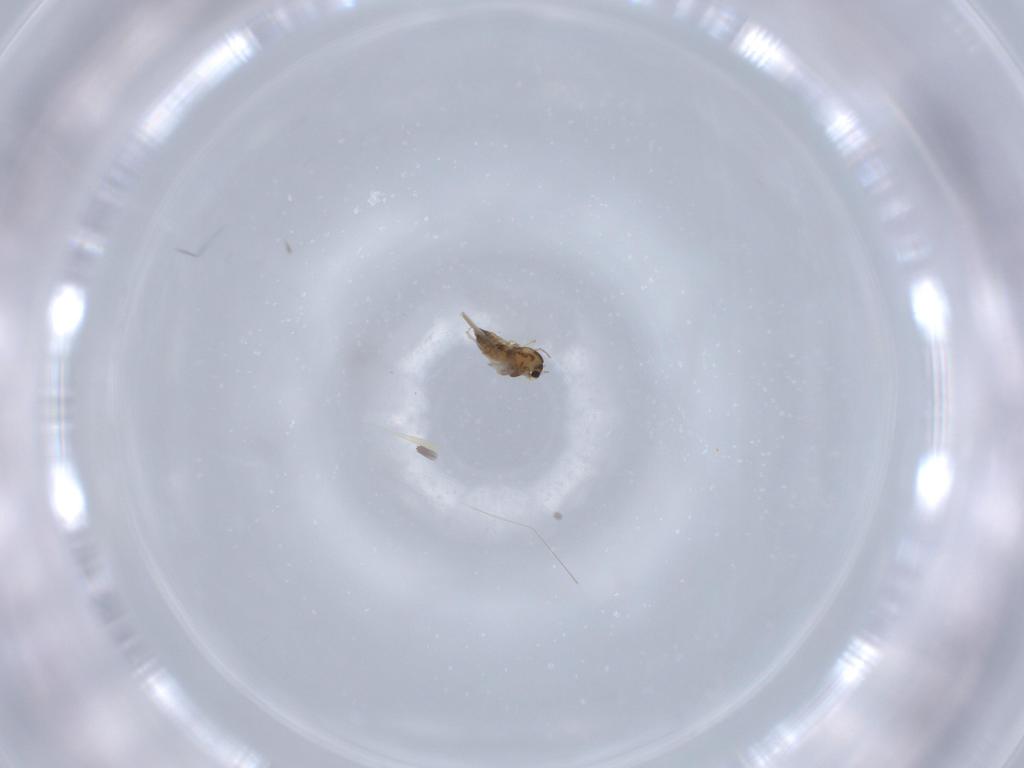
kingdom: Animalia
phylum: Arthropoda
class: Insecta
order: Diptera
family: Chironomidae
